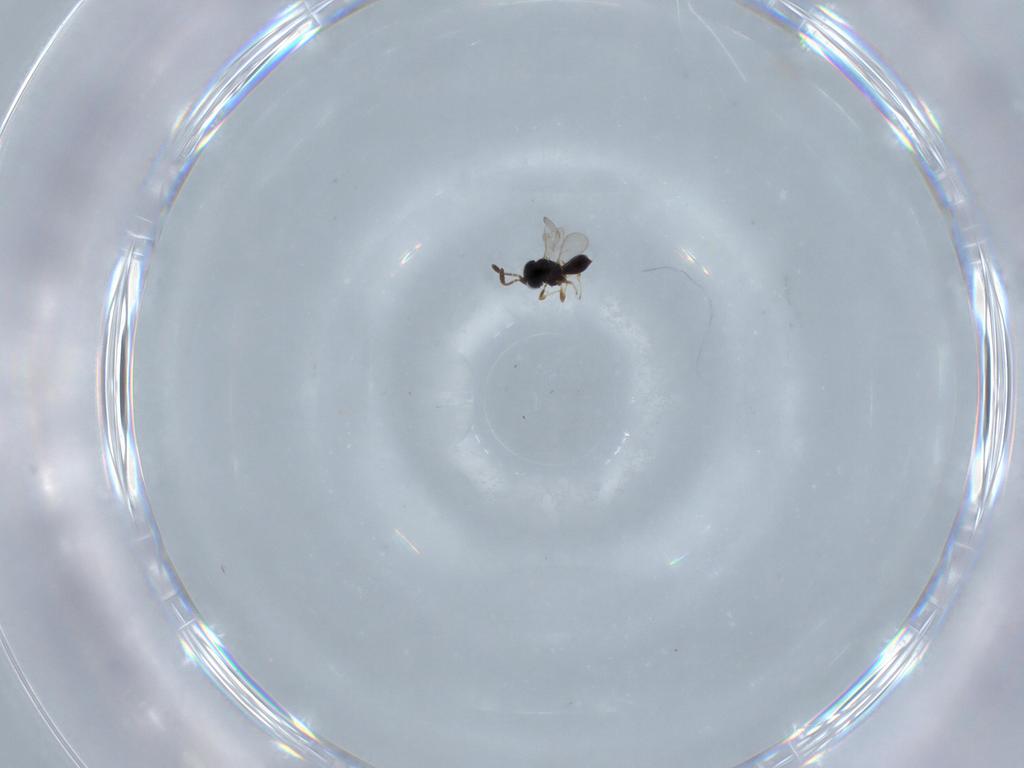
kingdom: Animalia
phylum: Arthropoda
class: Insecta
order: Hymenoptera
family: Scelionidae
